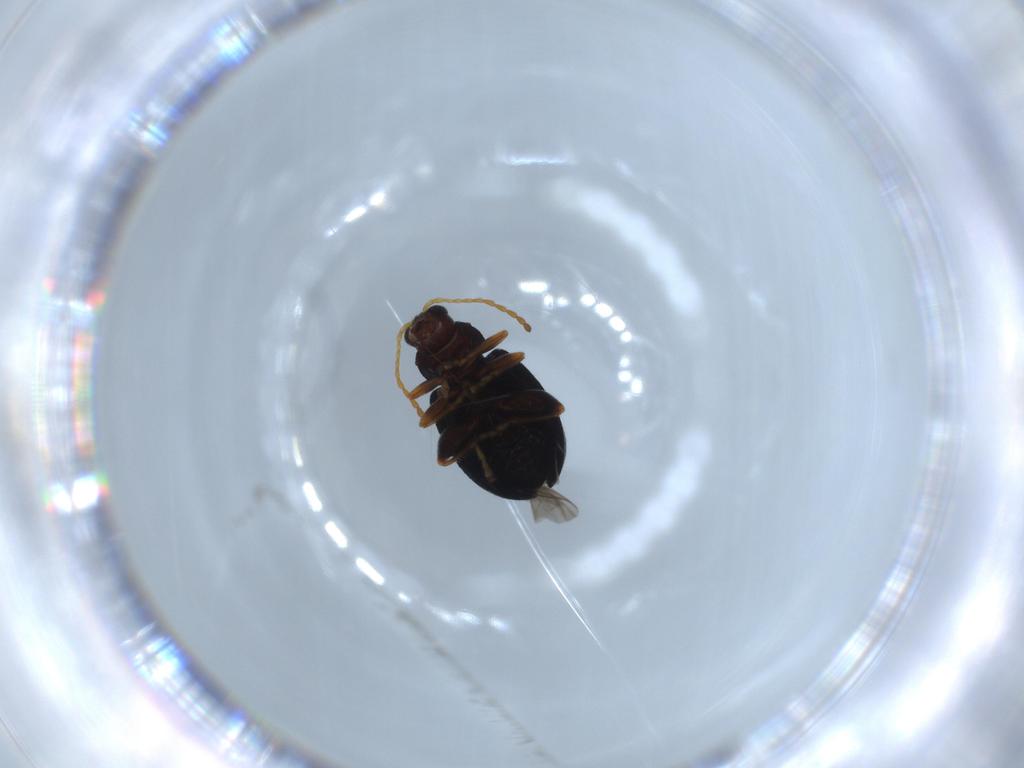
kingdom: Animalia
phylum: Arthropoda
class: Insecta
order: Coleoptera
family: Chrysomelidae
